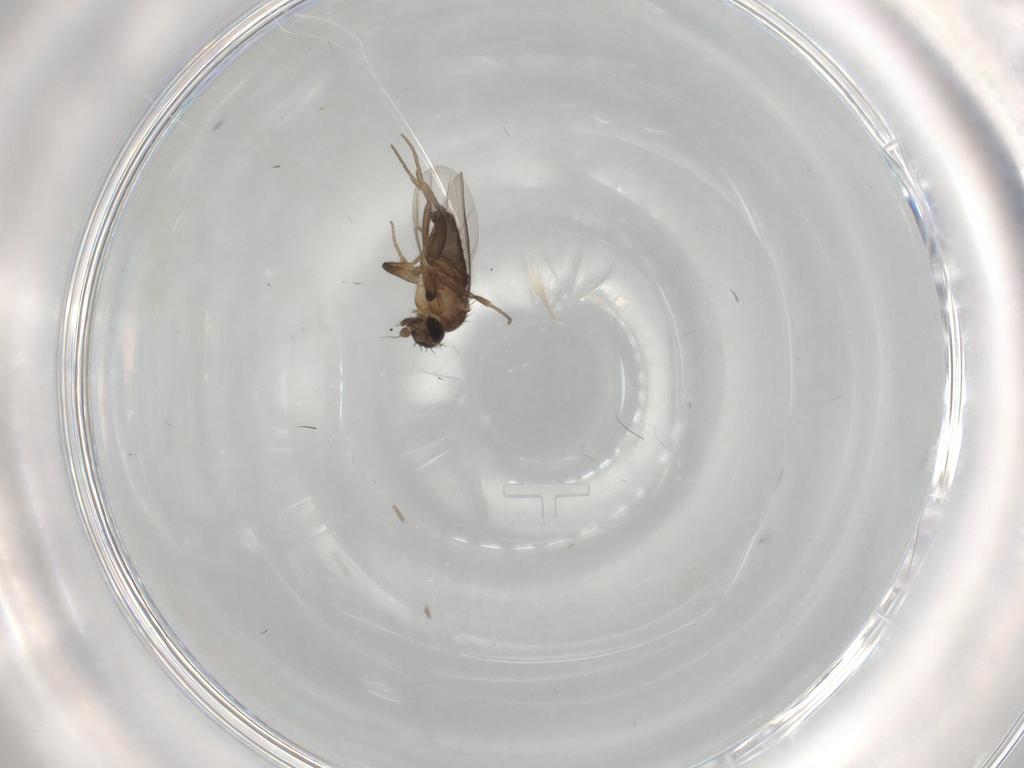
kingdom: Animalia
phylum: Arthropoda
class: Insecta
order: Diptera
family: Phoridae
